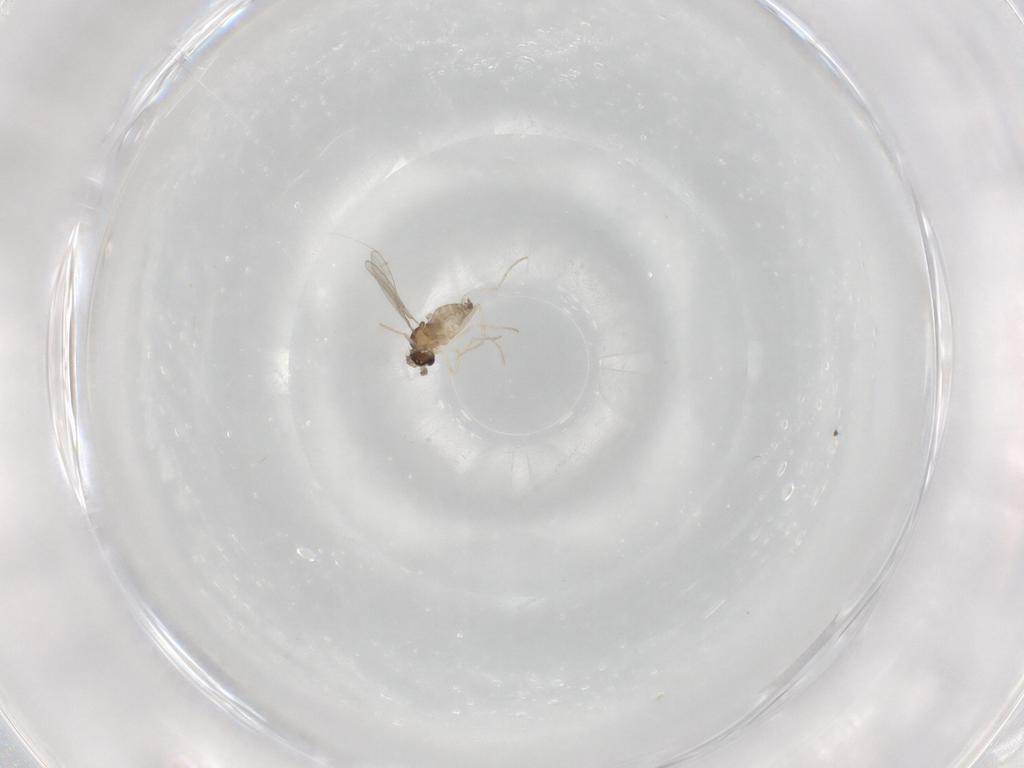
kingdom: Animalia
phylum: Arthropoda
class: Insecta
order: Diptera
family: Cecidomyiidae
